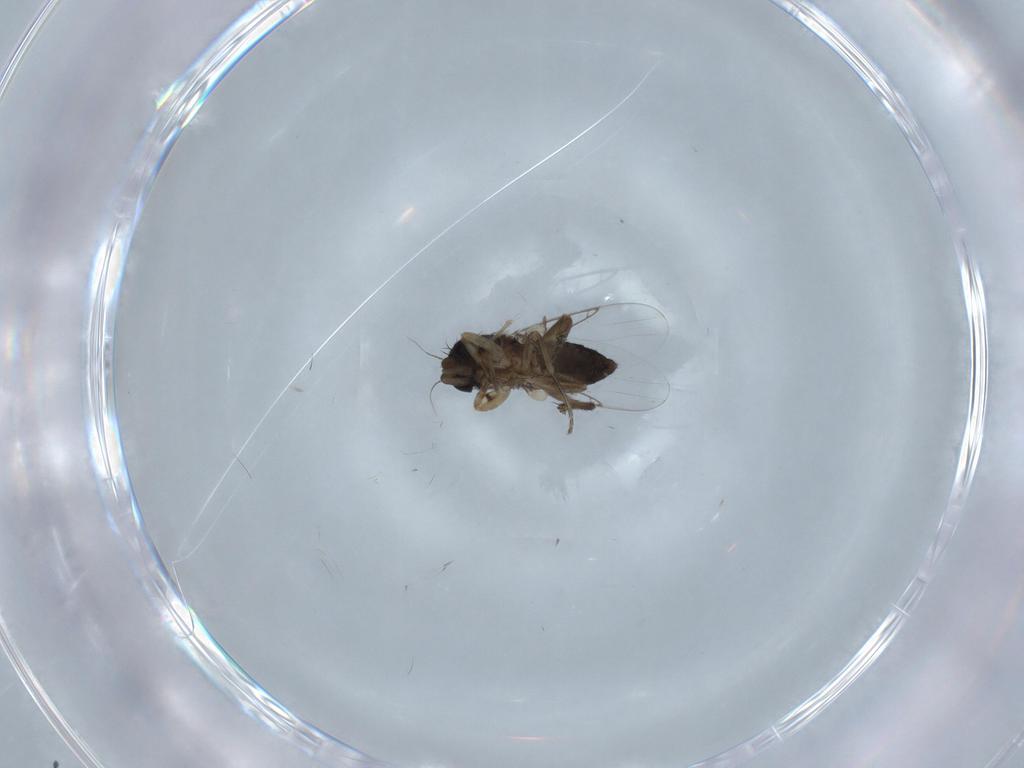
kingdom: Animalia
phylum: Arthropoda
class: Insecta
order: Diptera
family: Phoridae
